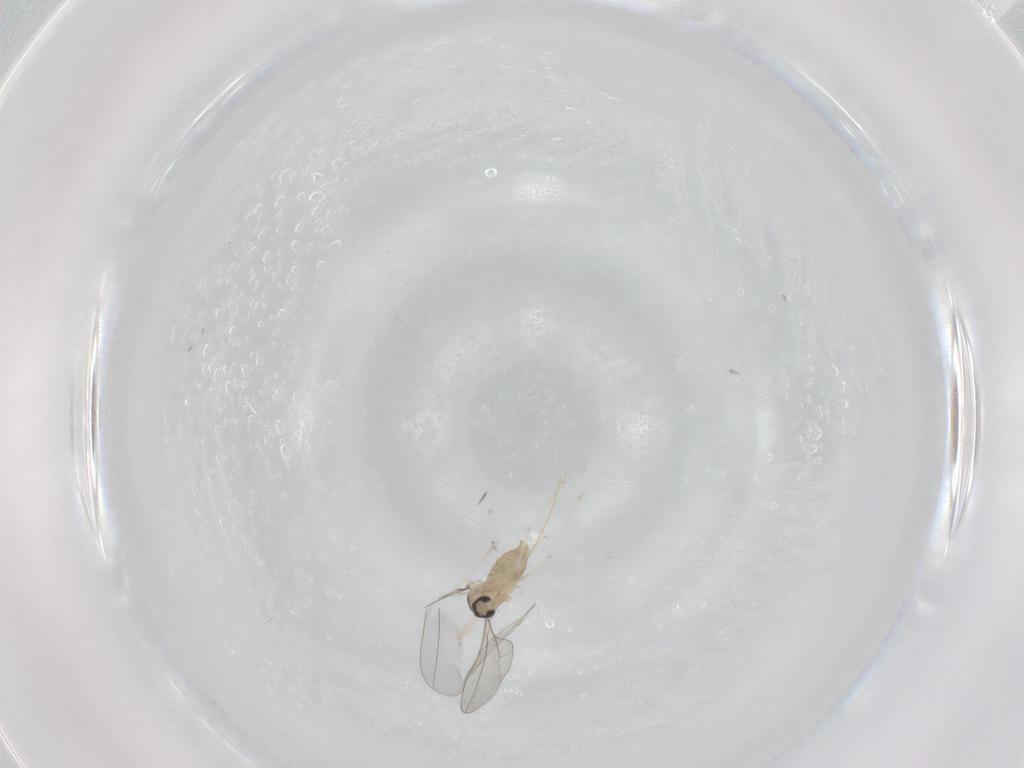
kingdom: Animalia
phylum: Arthropoda
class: Insecta
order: Diptera
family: Cecidomyiidae
